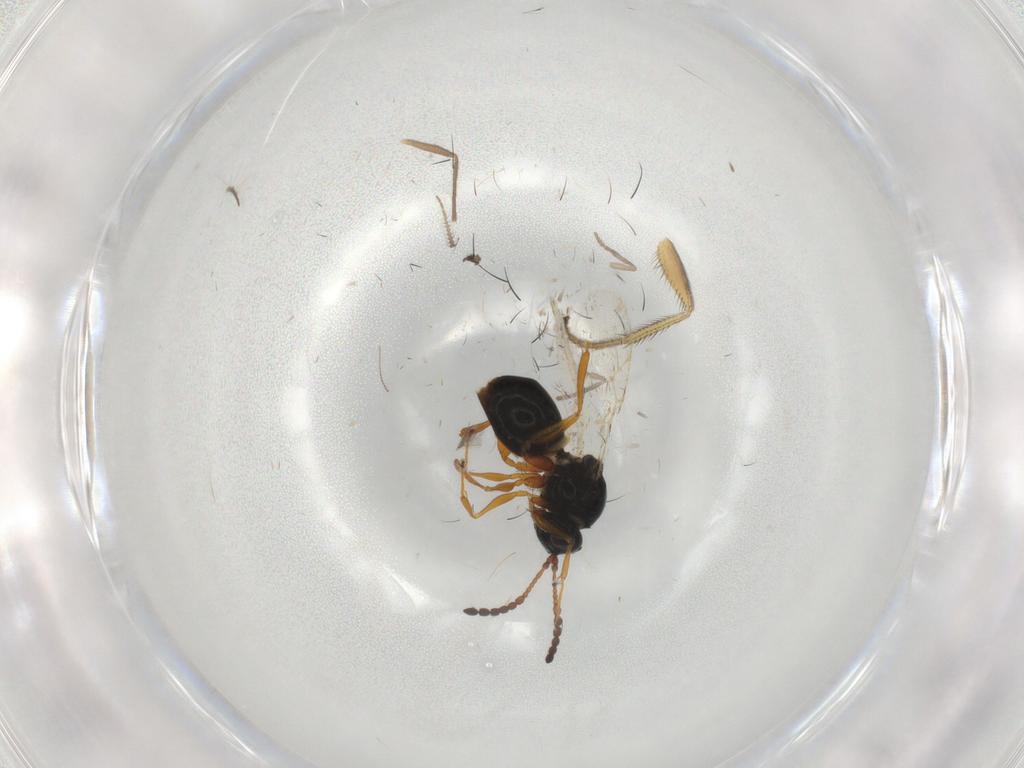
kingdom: Animalia
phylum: Arthropoda
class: Insecta
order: Hymenoptera
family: Figitidae
